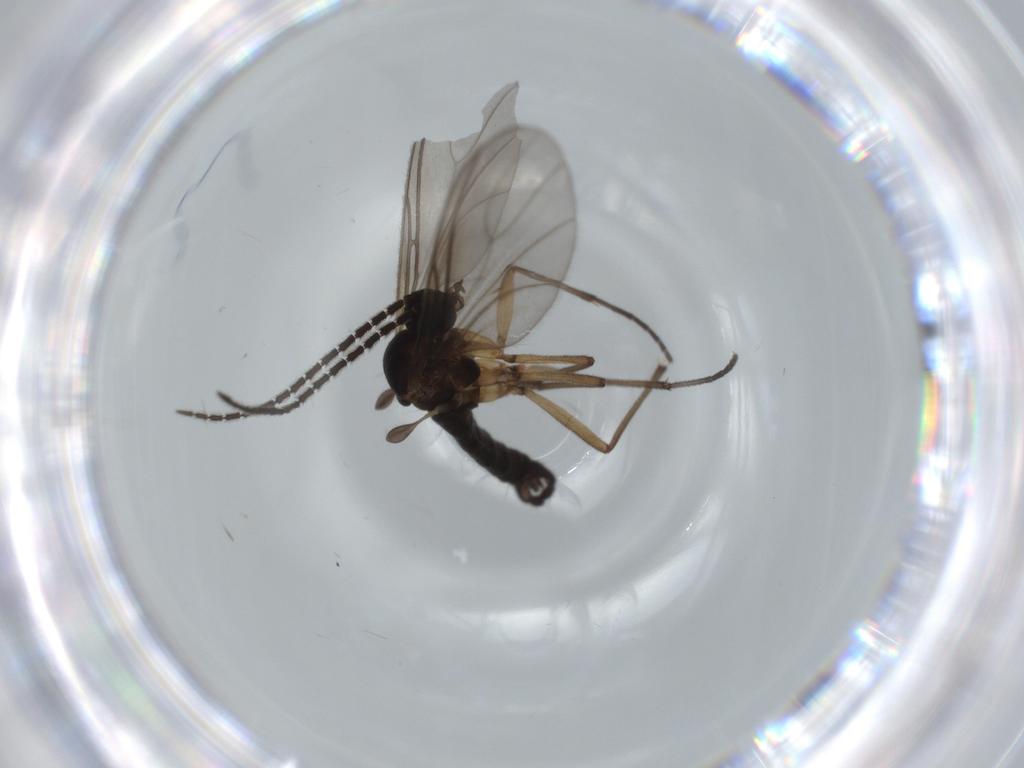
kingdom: Animalia
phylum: Arthropoda
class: Insecta
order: Diptera
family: Sciaridae
